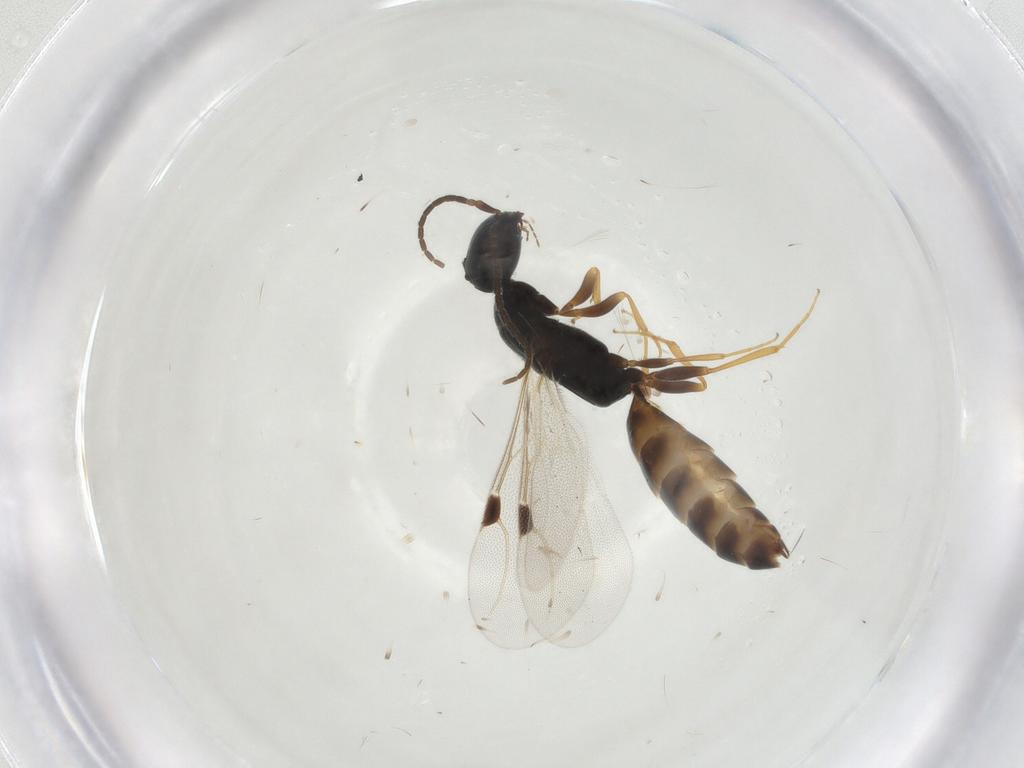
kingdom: Animalia
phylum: Arthropoda
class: Insecta
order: Hymenoptera
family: Bethylidae
